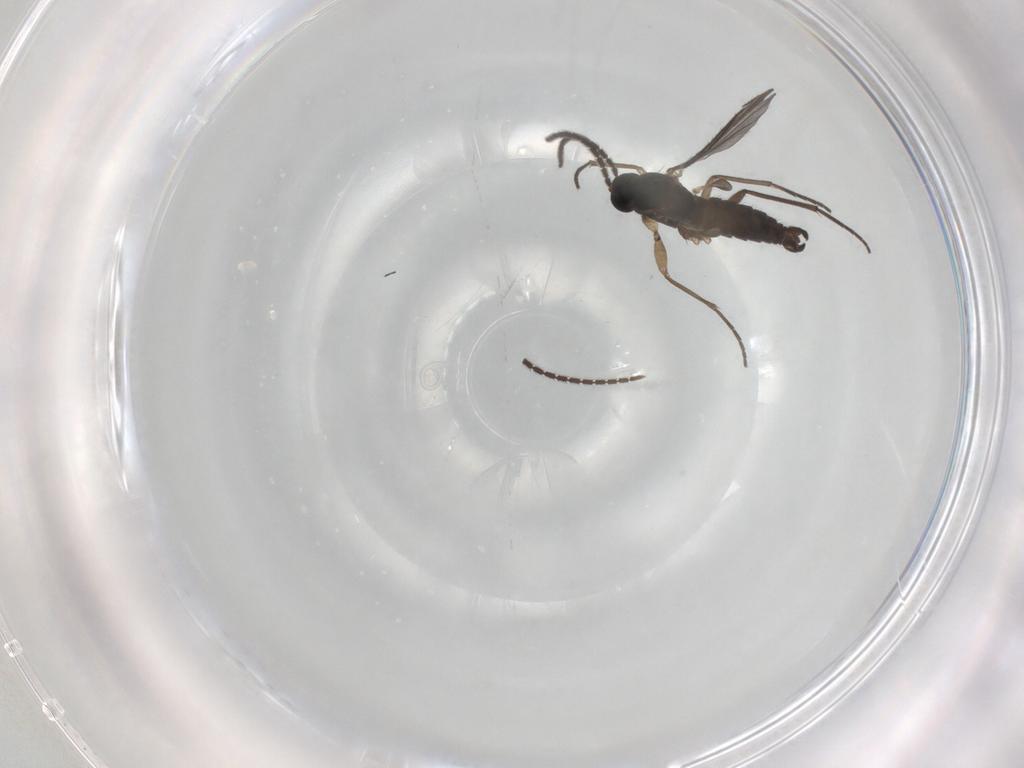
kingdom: Animalia
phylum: Arthropoda
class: Insecta
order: Diptera
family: Sciaridae
